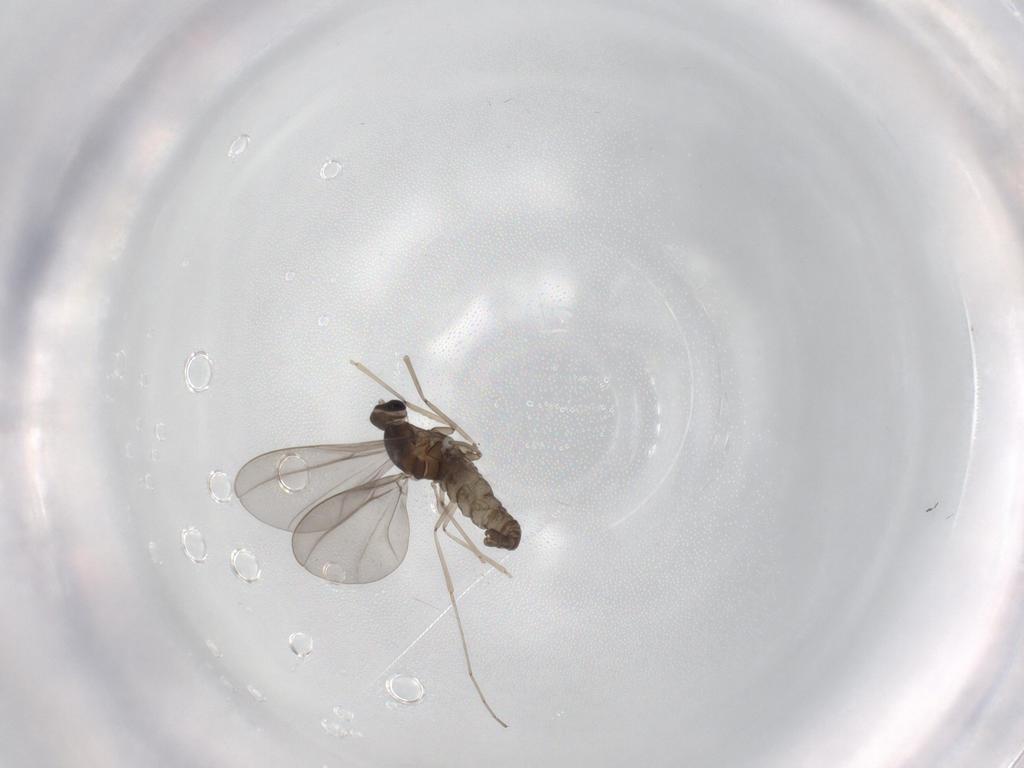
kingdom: Animalia
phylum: Arthropoda
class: Insecta
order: Diptera
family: Cecidomyiidae
